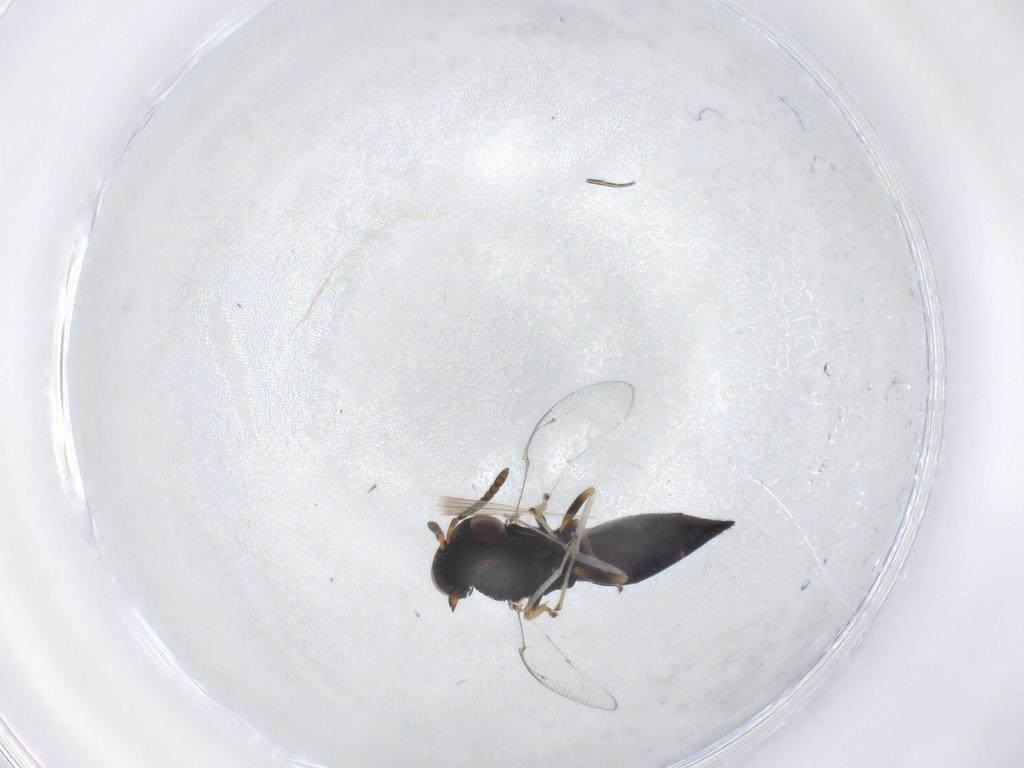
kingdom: Animalia
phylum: Arthropoda
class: Insecta
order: Hymenoptera
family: Pteromalidae
